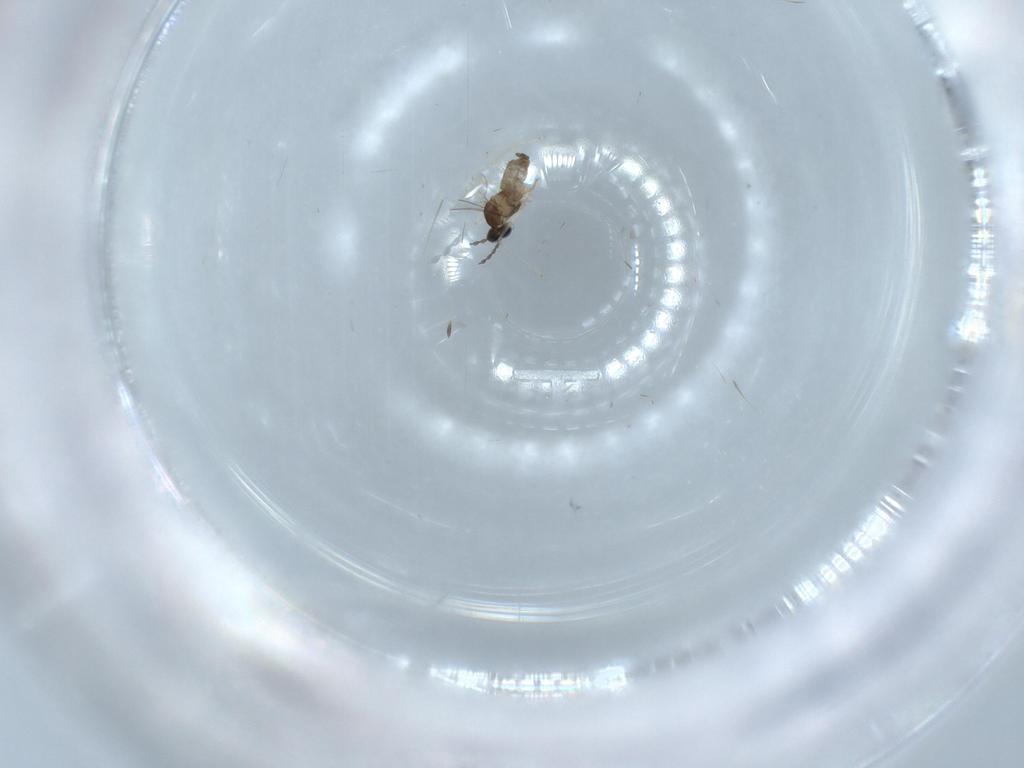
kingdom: Animalia
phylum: Arthropoda
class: Insecta
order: Diptera
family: Cecidomyiidae
